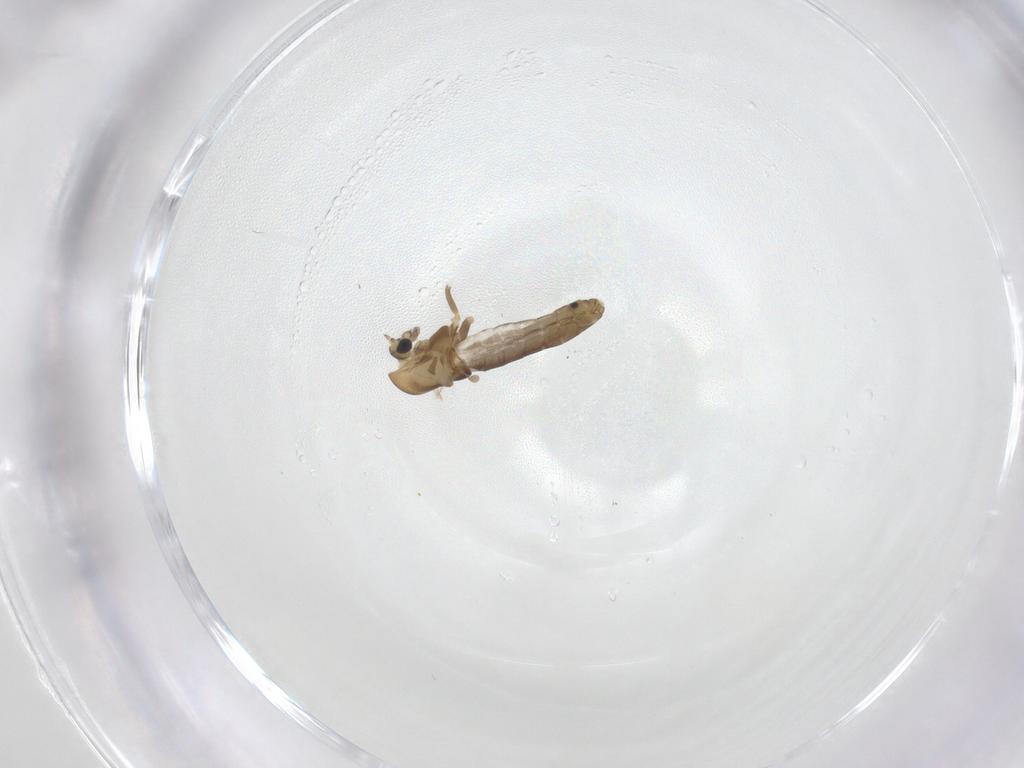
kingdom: Animalia
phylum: Arthropoda
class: Insecta
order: Diptera
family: Chironomidae
